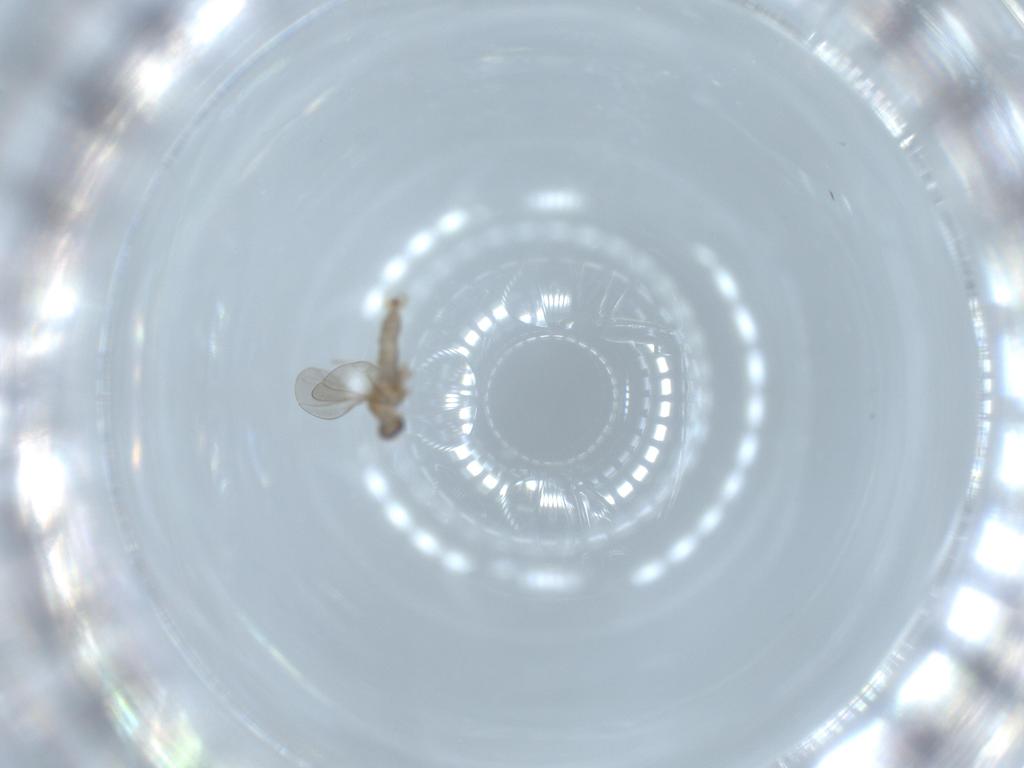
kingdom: Animalia
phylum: Arthropoda
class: Insecta
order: Diptera
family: Cecidomyiidae
